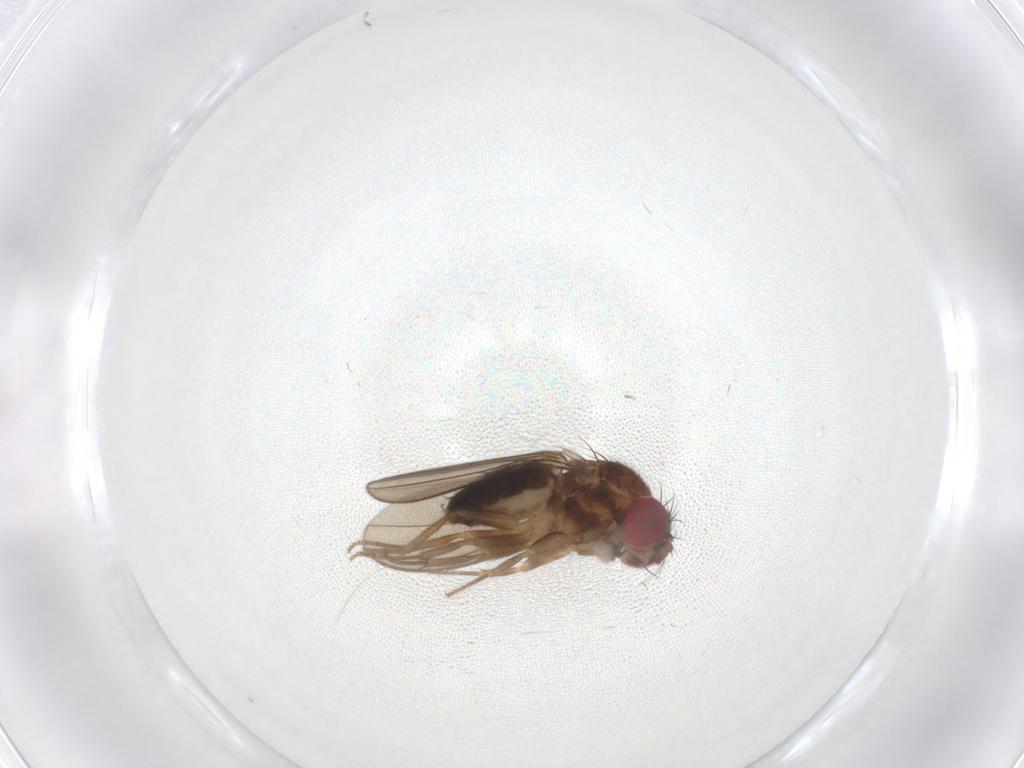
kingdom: Animalia
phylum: Arthropoda
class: Insecta
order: Diptera
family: Drosophilidae
